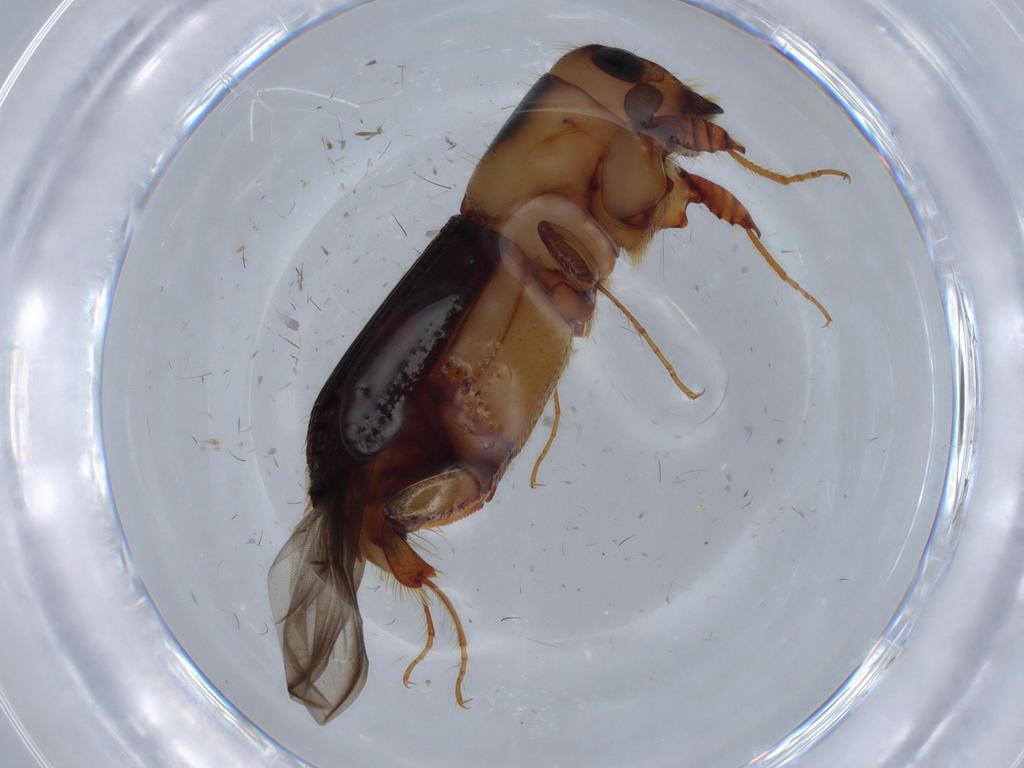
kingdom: Animalia
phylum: Arthropoda
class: Insecta
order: Coleoptera
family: Curculionidae
